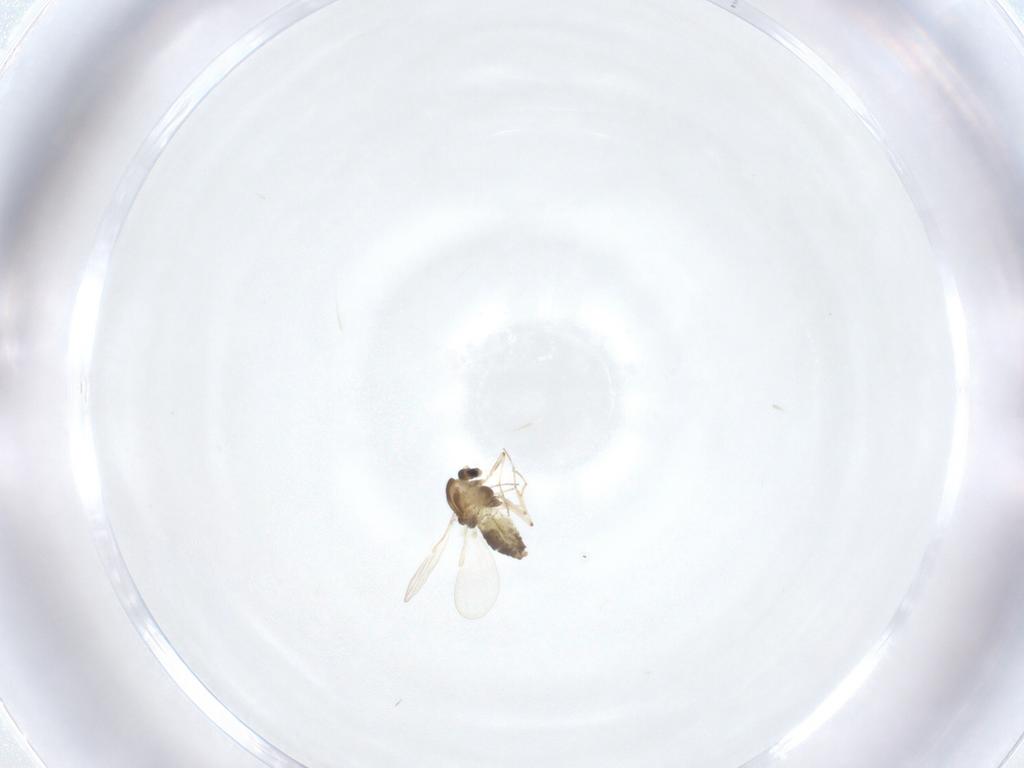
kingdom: Animalia
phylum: Arthropoda
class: Insecta
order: Diptera
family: Chironomidae
